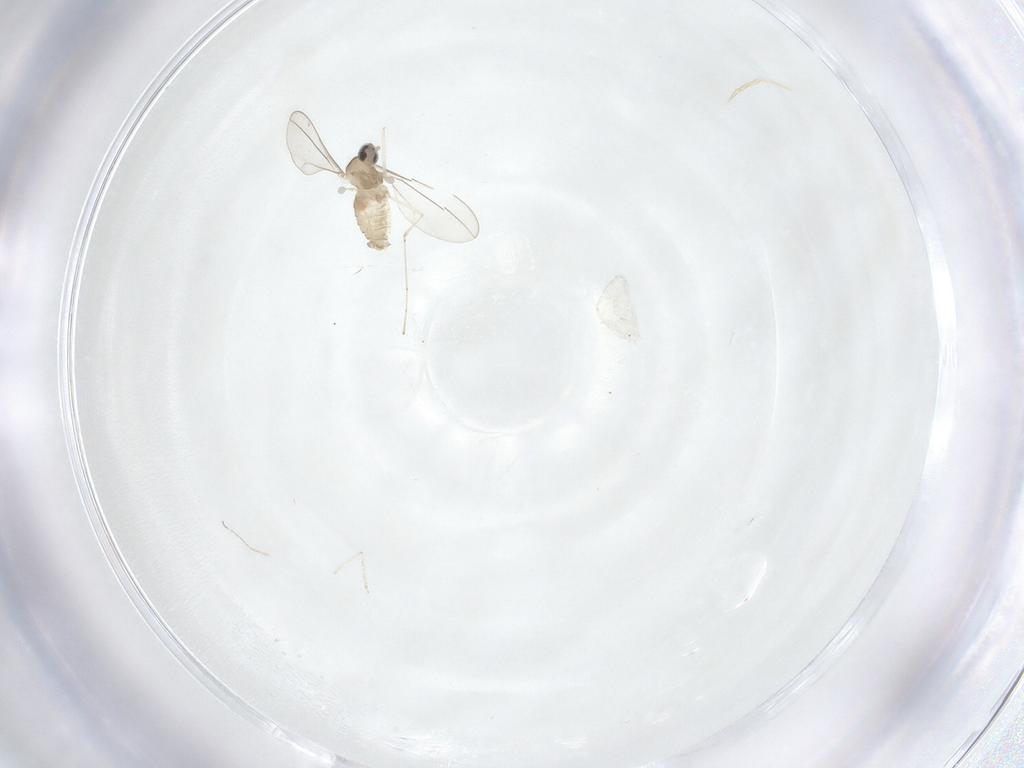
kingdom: Animalia
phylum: Arthropoda
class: Insecta
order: Diptera
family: Cecidomyiidae
